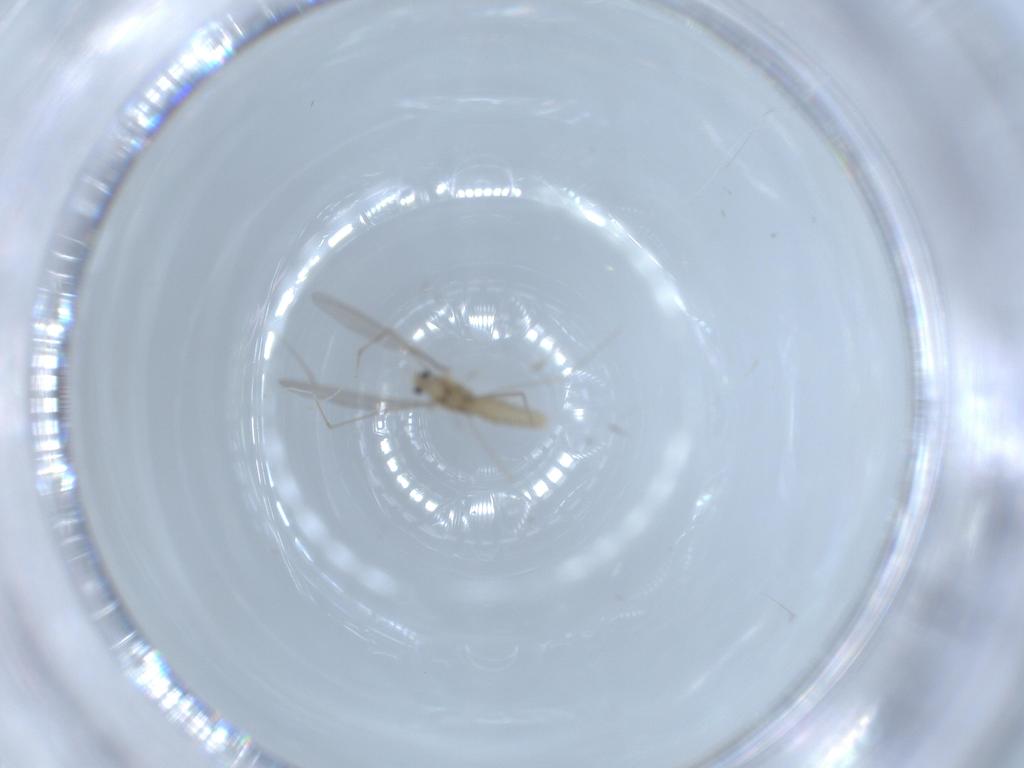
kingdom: Animalia
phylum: Arthropoda
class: Insecta
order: Diptera
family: Cecidomyiidae
